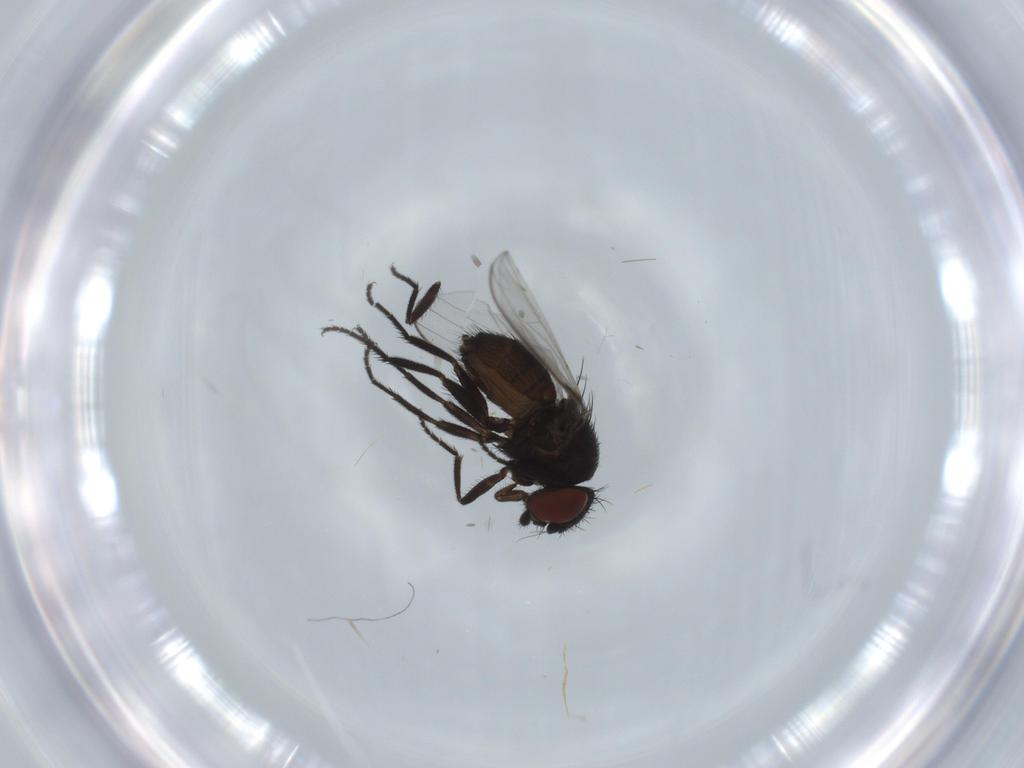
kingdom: Animalia
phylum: Arthropoda
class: Insecta
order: Diptera
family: Milichiidae
